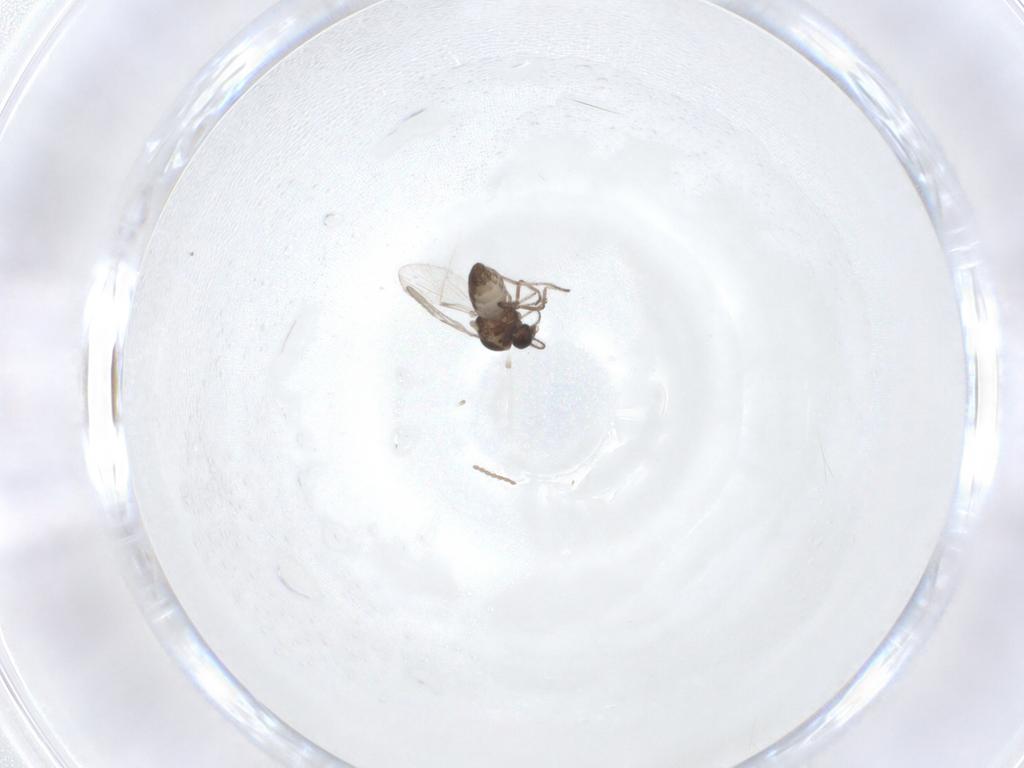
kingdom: Animalia
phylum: Arthropoda
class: Insecta
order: Diptera
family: Ceratopogonidae
